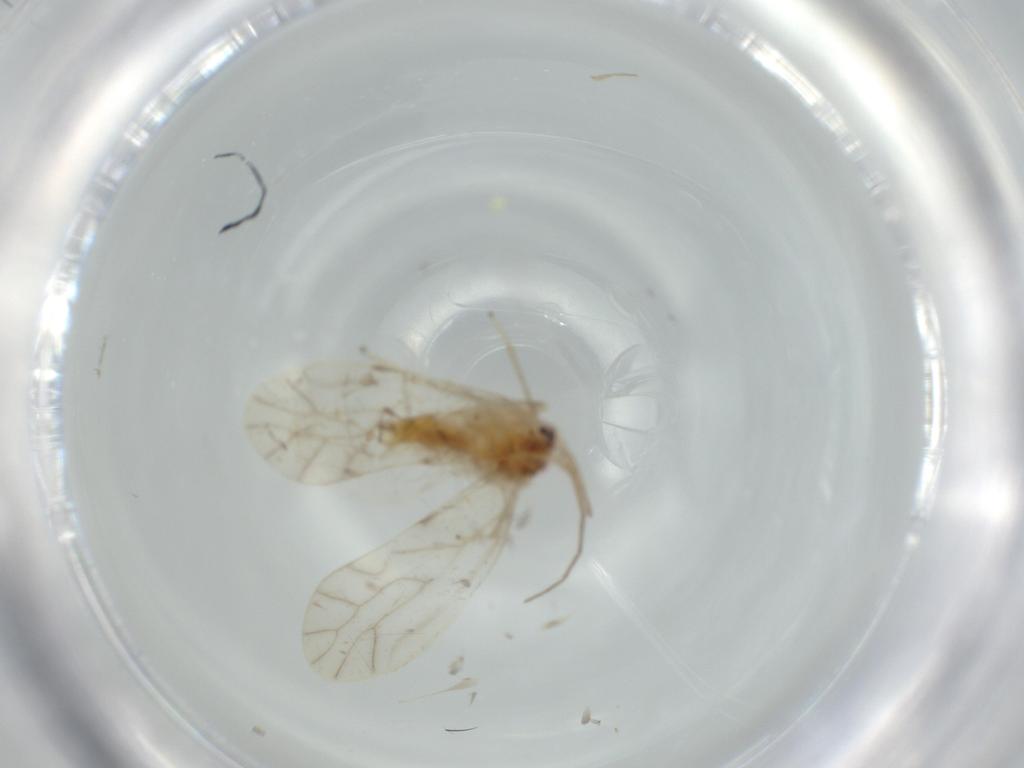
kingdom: Animalia
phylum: Arthropoda
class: Insecta
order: Psocodea
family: Caeciliusidae
